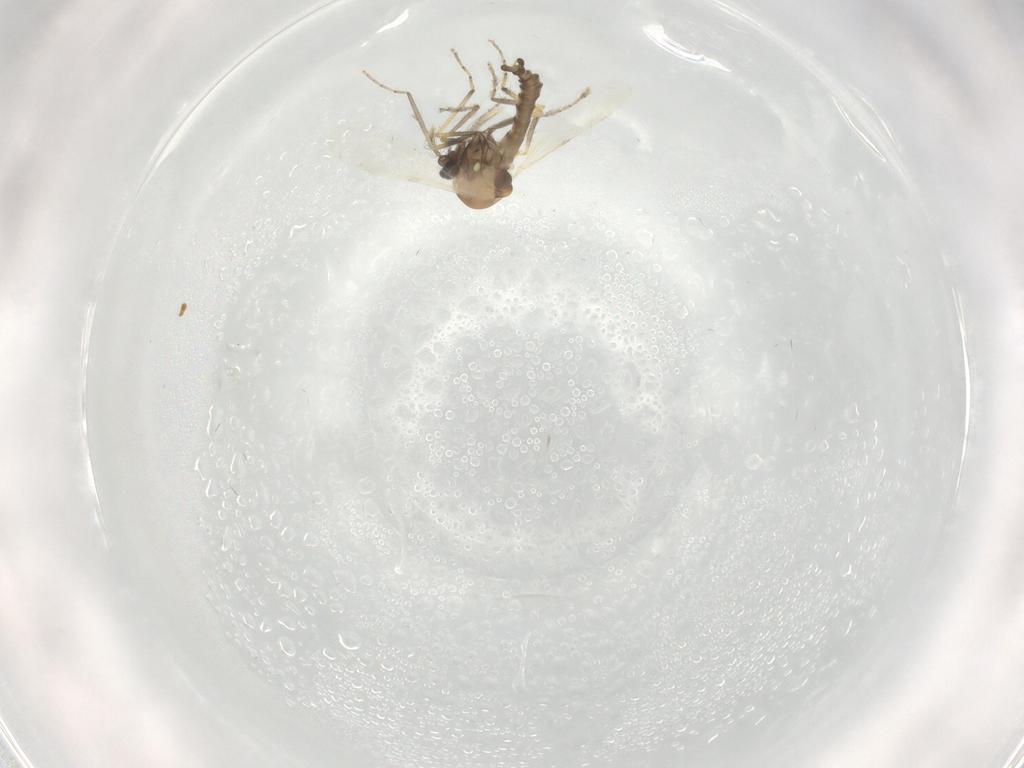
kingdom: Animalia
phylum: Arthropoda
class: Insecta
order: Diptera
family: Ceratopogonidae
